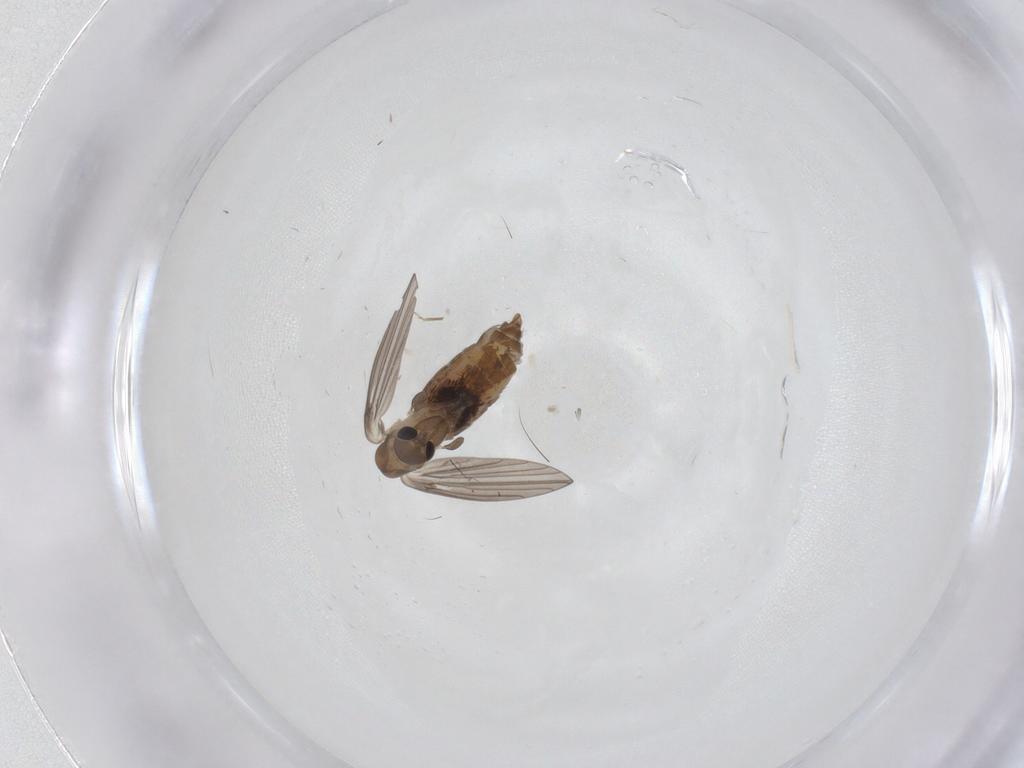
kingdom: Animalia
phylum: Arthropoda
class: Insecta
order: Diptera
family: Psychodidae
